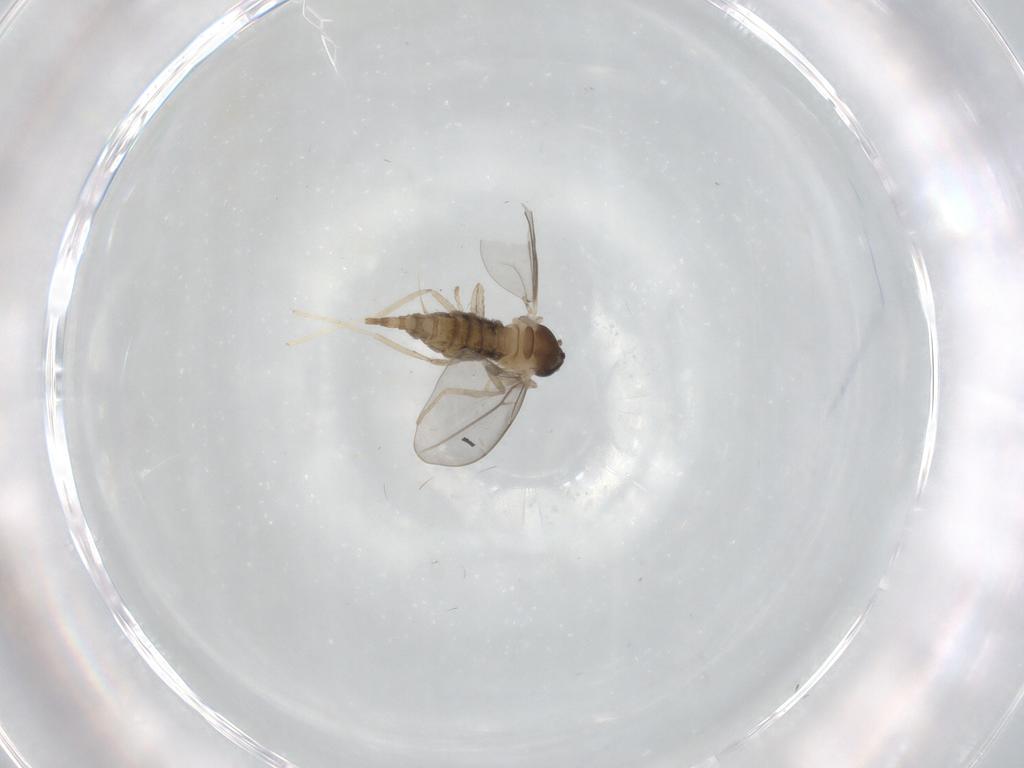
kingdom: Animalia
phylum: Arthropoda
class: Insecta
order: Diptera
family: Cecidomyiidae
